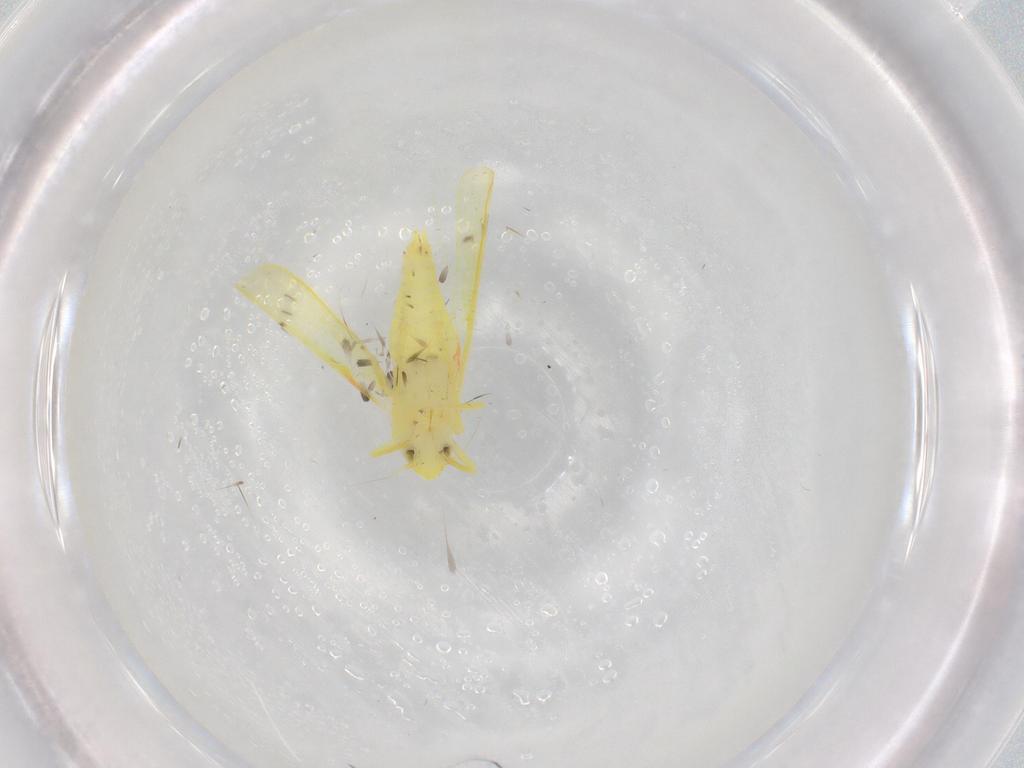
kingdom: Animalia
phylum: Arthropoda
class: Insecta
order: Hemiptera
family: Cicadellidae
